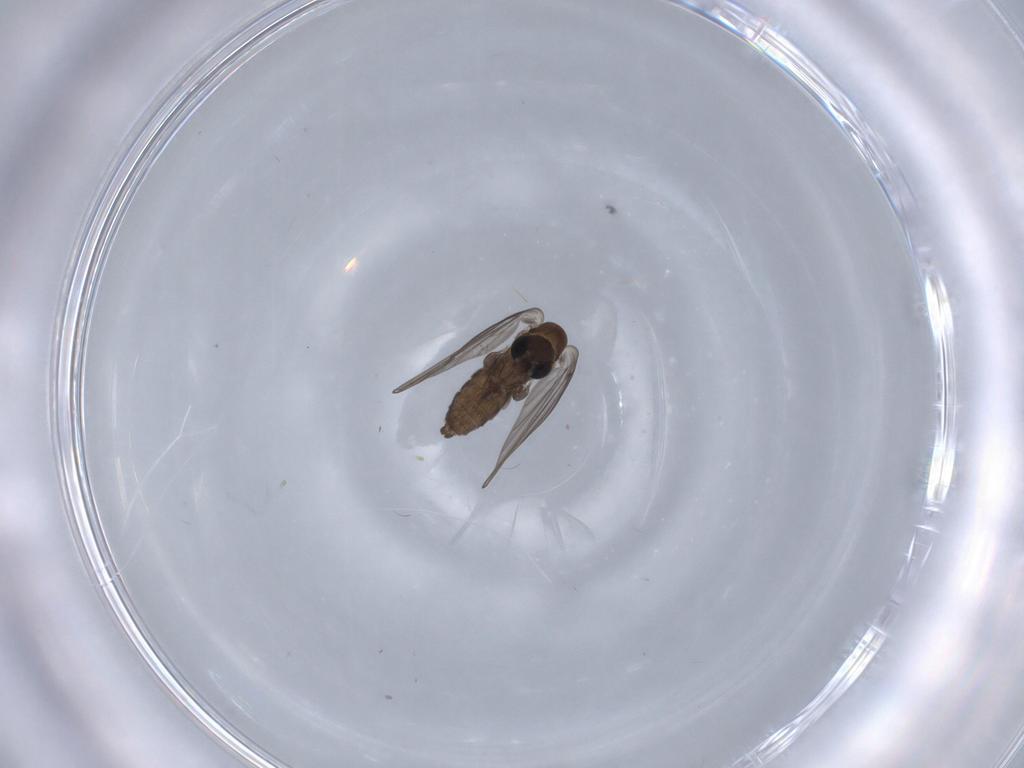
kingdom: Animalia
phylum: Arthropoda
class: Insecta
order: Diptera
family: Psychodidae
